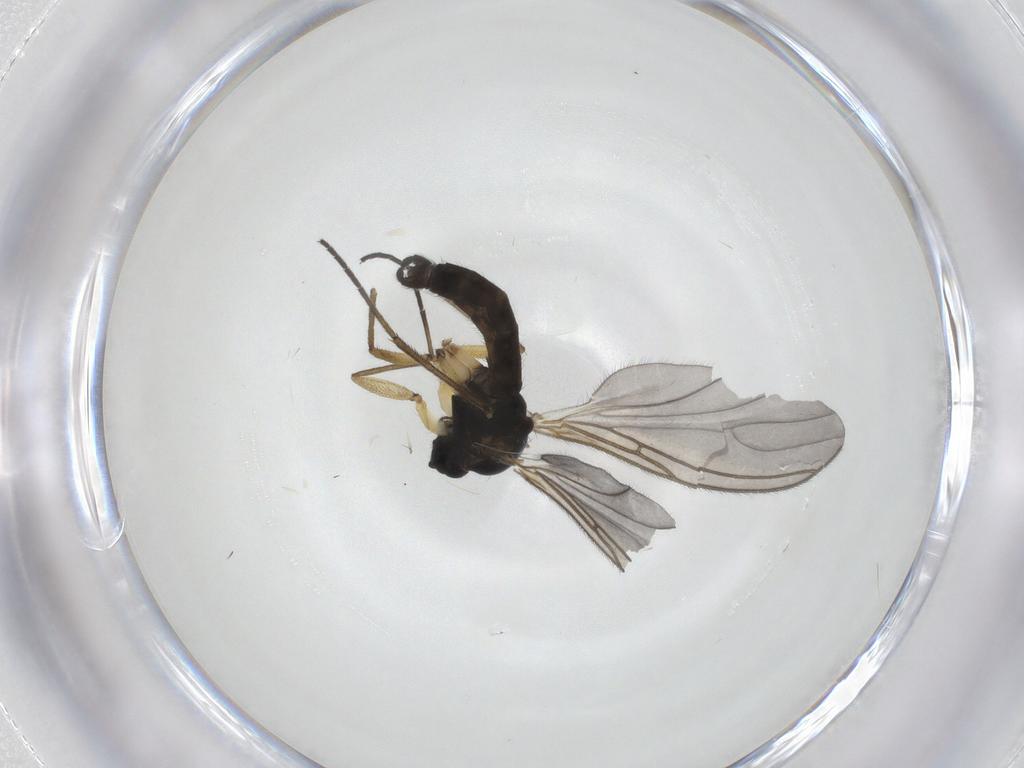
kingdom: Animalia
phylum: Arthropoda
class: Insecta
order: Diptera
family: Sciaridae
